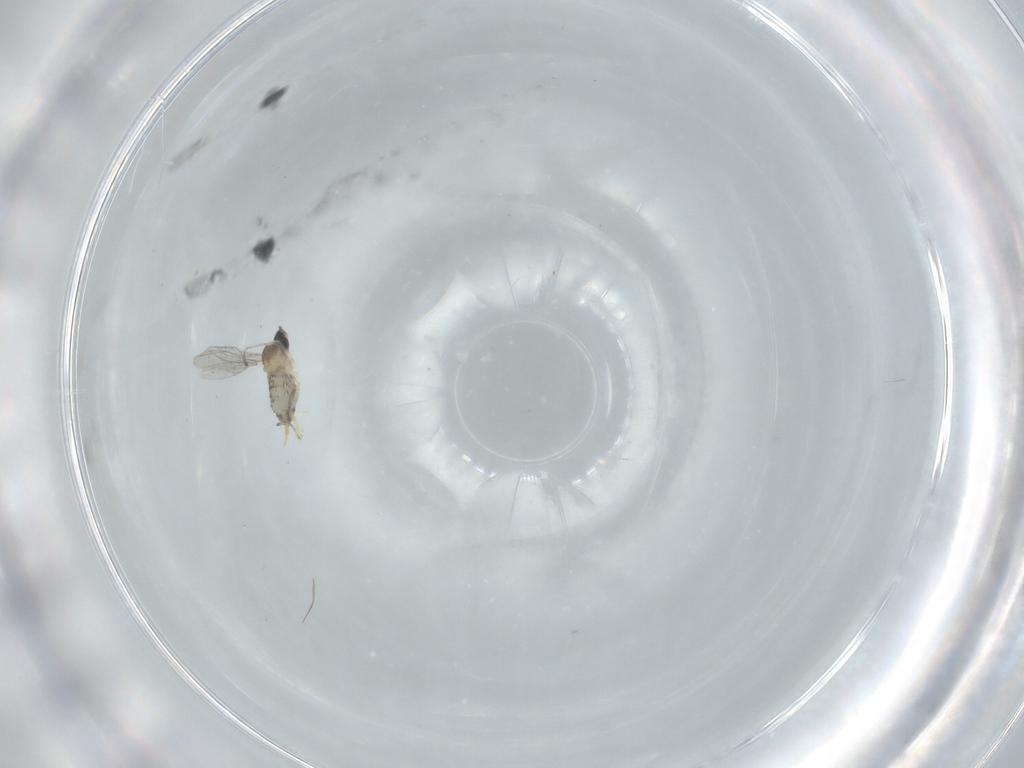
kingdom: Animalia
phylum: Arthropoda
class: Insecta
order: Diptera
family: Cecidomyiidae
